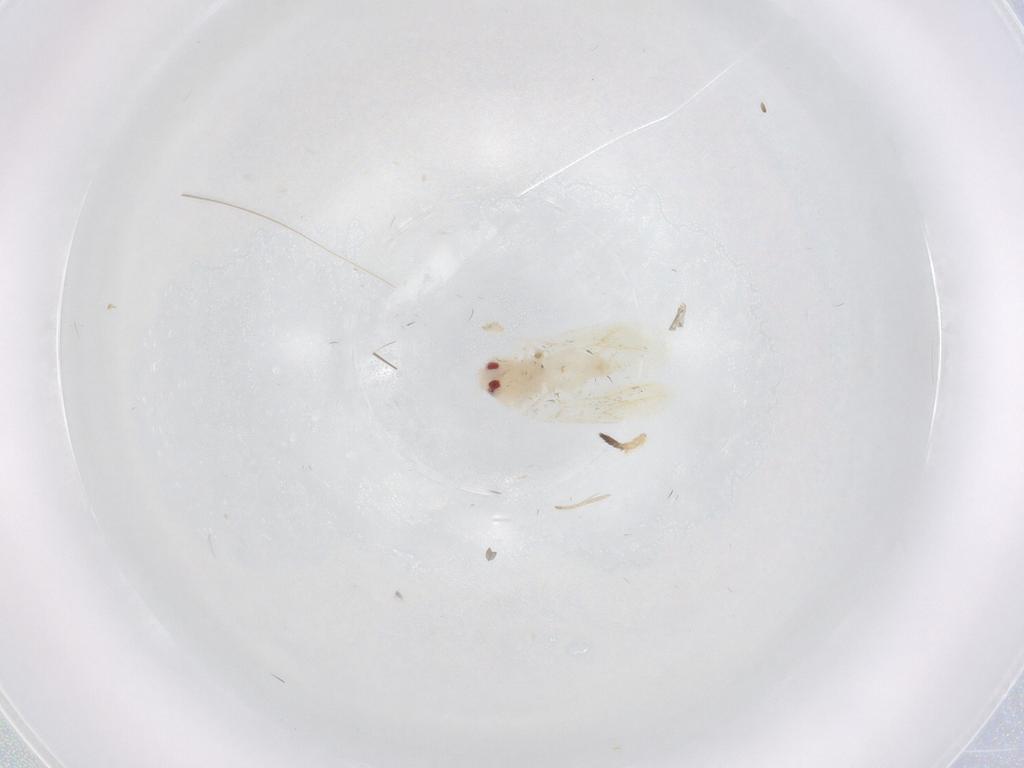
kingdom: Animalia
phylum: Arthropoda
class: Insecta
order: Hemiptera
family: Aleyrodidae
